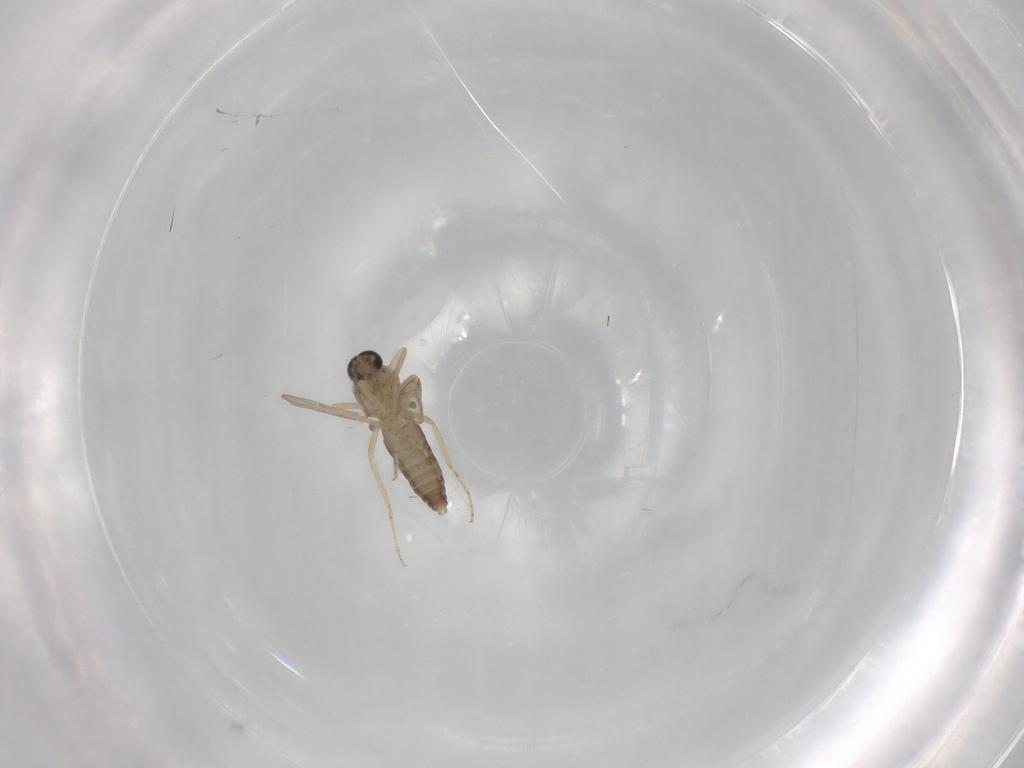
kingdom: Animalia
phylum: Arthropoda
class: Insecta
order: Diptera
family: Ceratopogonidae
